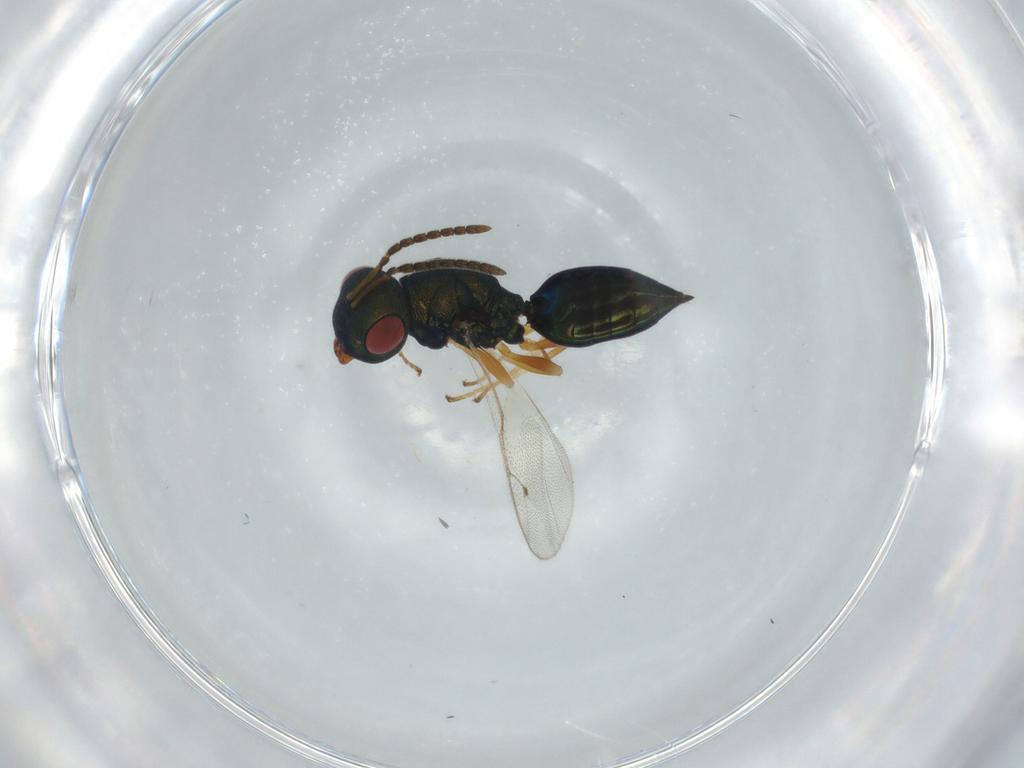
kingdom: Animalia
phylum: Arthropoda
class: Insecta
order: Hymenoptera
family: Pteromalidae
